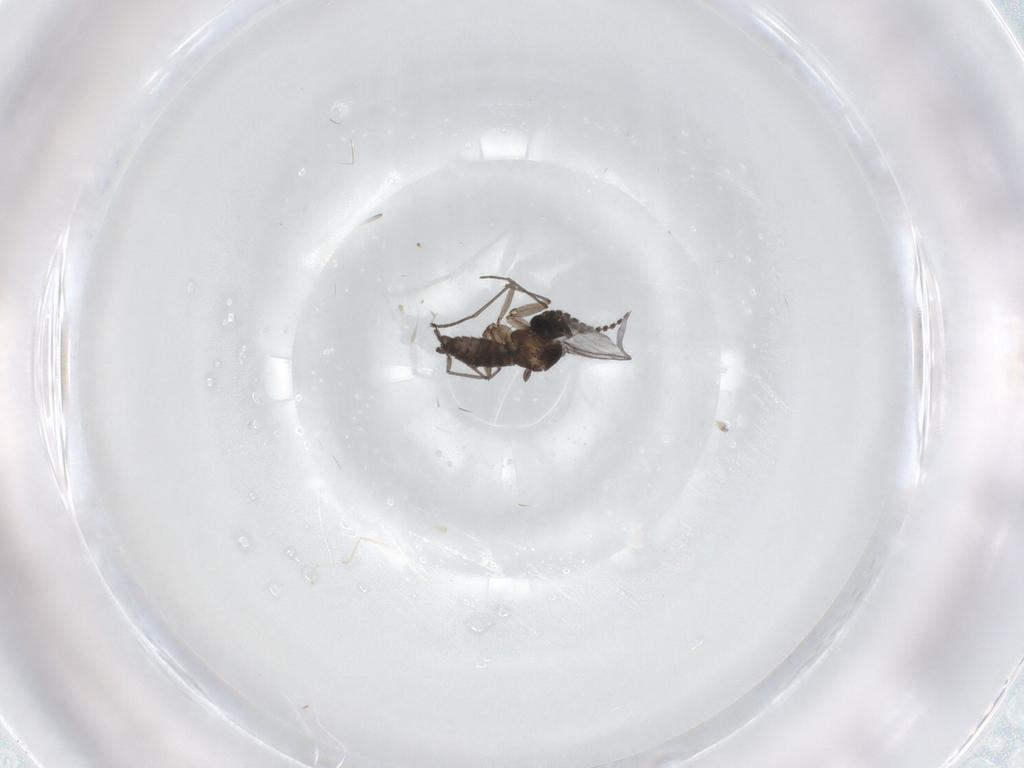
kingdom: Animalia
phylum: Arthropoda
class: Insecta
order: Diptera
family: Sciaridae
